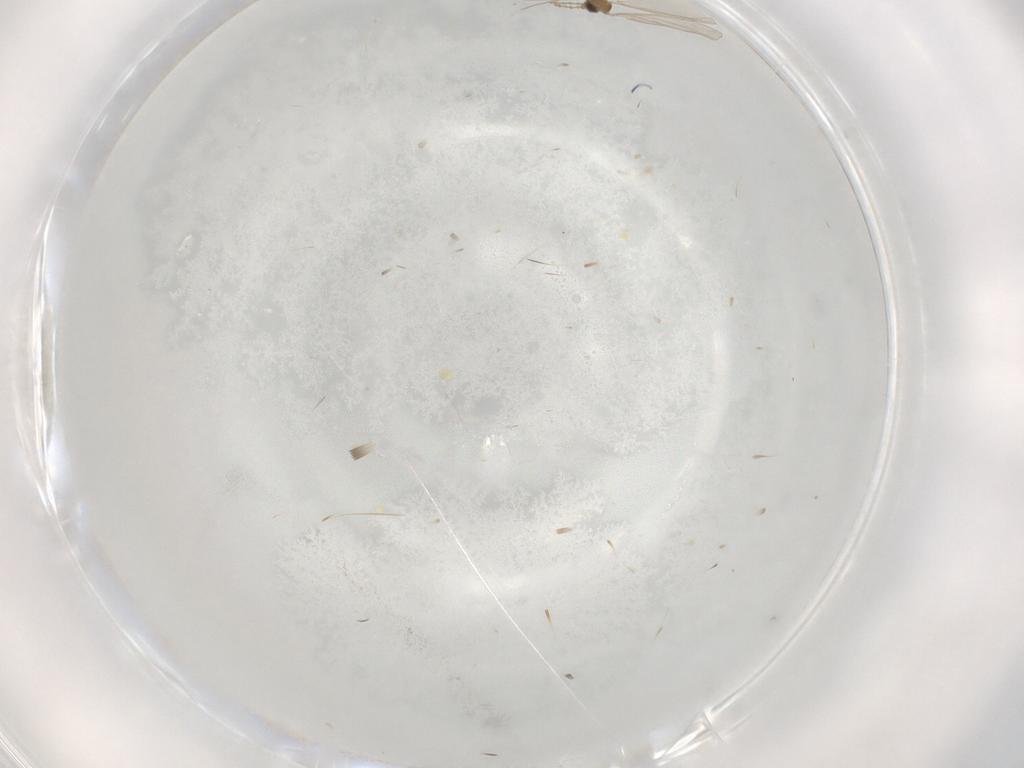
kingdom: Animalia
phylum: Arthropoda
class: Insecta
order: Diptera
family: Cecidomyiidae
